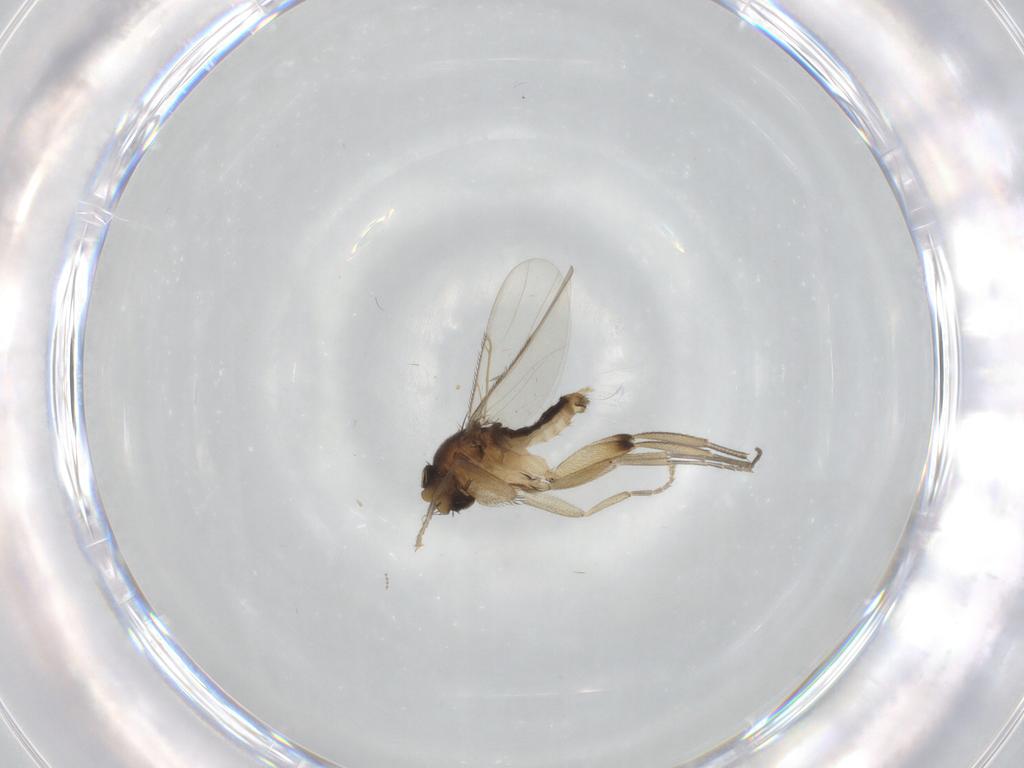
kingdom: Animalia
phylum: Arthropoda
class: Insecta
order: Diptera
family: Phoridae
